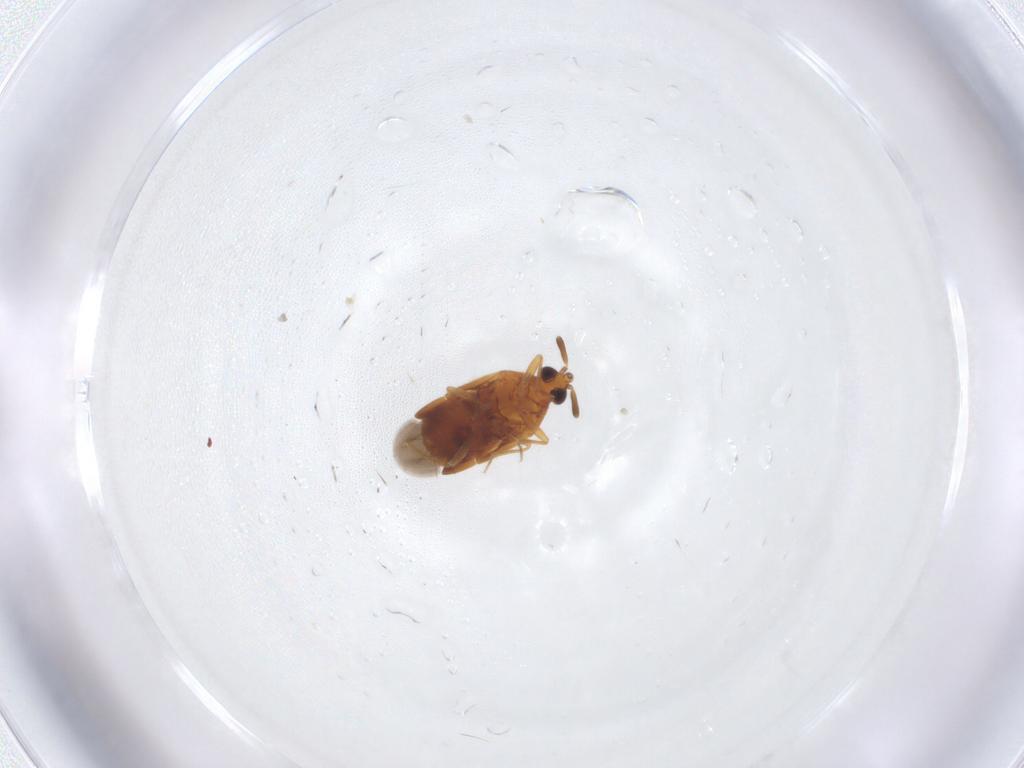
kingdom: Animalia
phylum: Arthropoda
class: Insecta
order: Hemiptera
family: Anthocoridae
